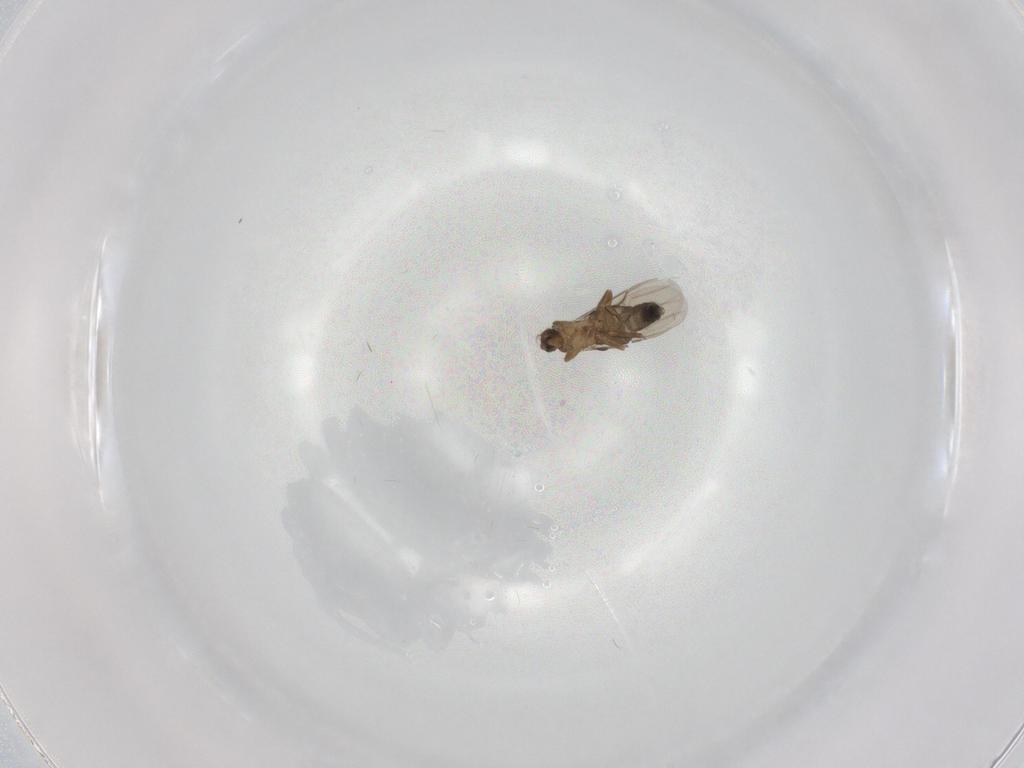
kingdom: Animalia
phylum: Arthropoda
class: Insecta
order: Diptera
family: Phoridae
